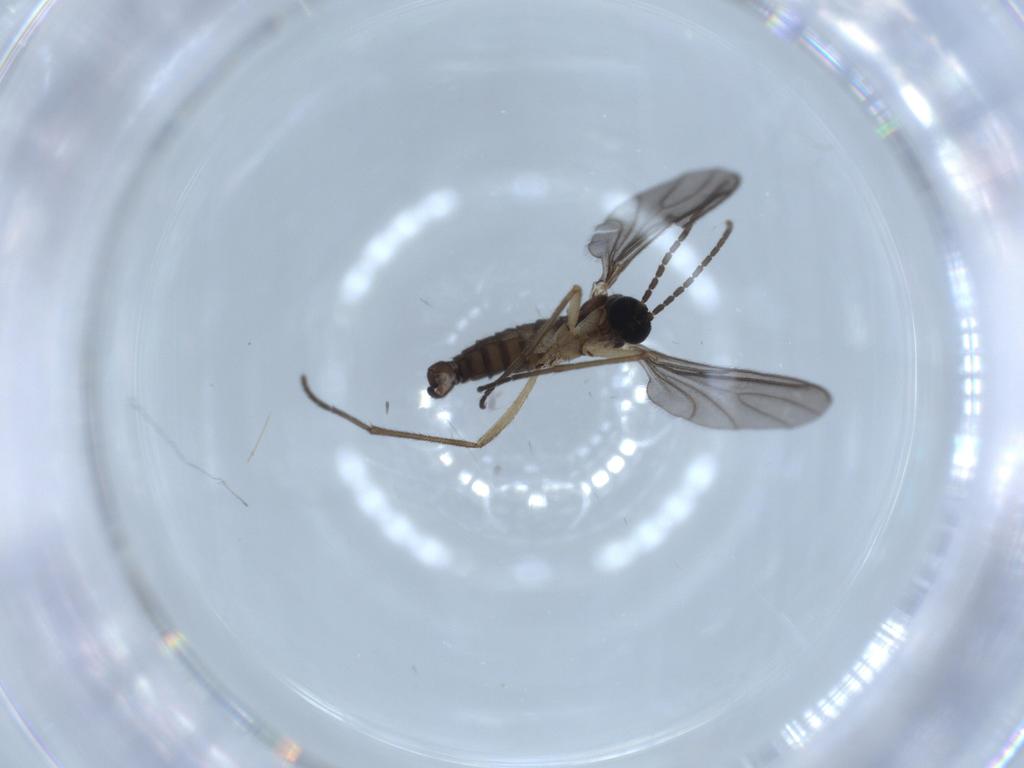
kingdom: Animalia
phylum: Arthropoda
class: Insecta
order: Diptera
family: Sciaridae
